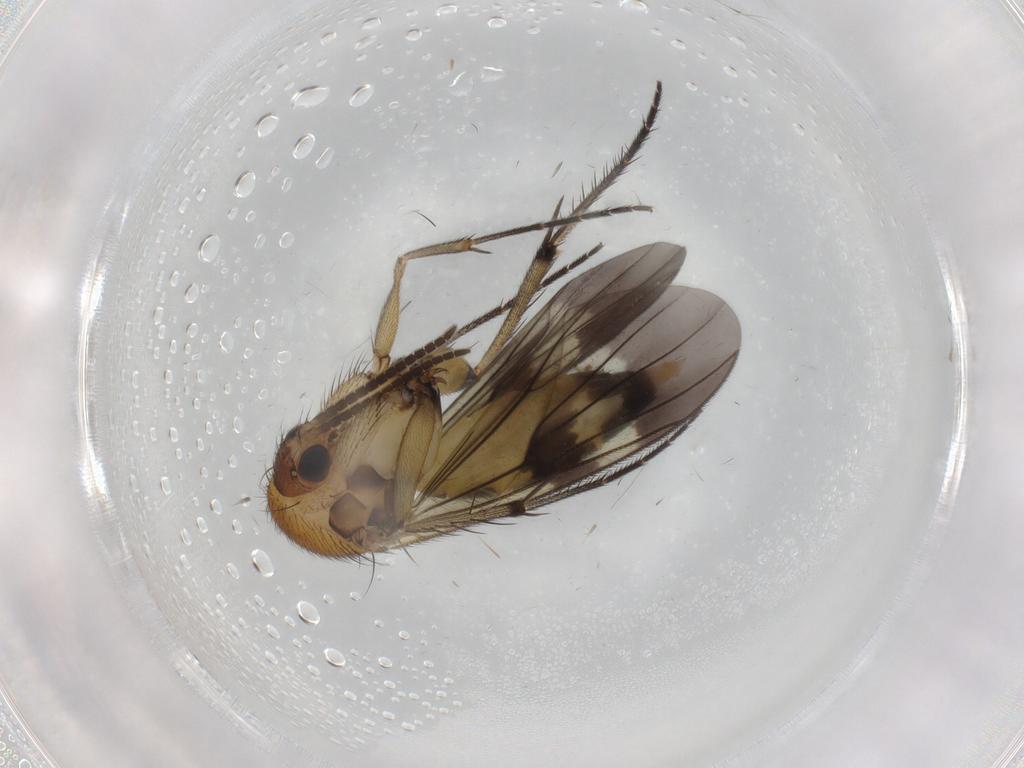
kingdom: Animalia
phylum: Arthropoda
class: Insecta
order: Diptera
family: Mycetophilidae
